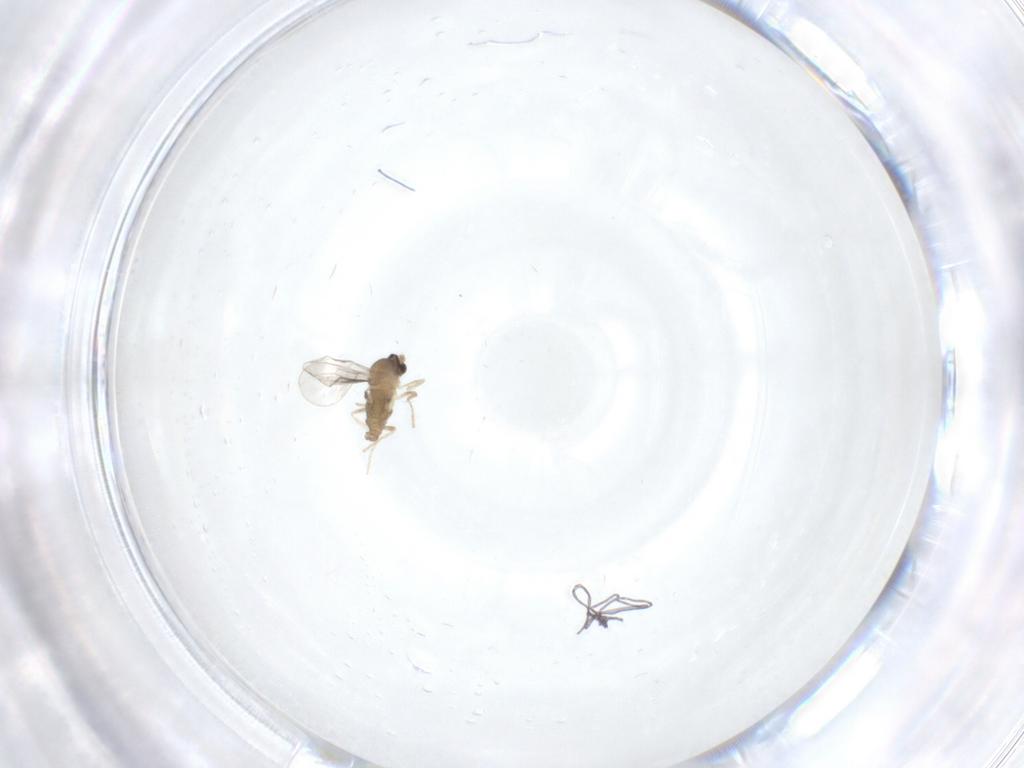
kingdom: Animalia
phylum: Arthropoda
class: Insecta
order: Diptera
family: Cecidomyiidae
